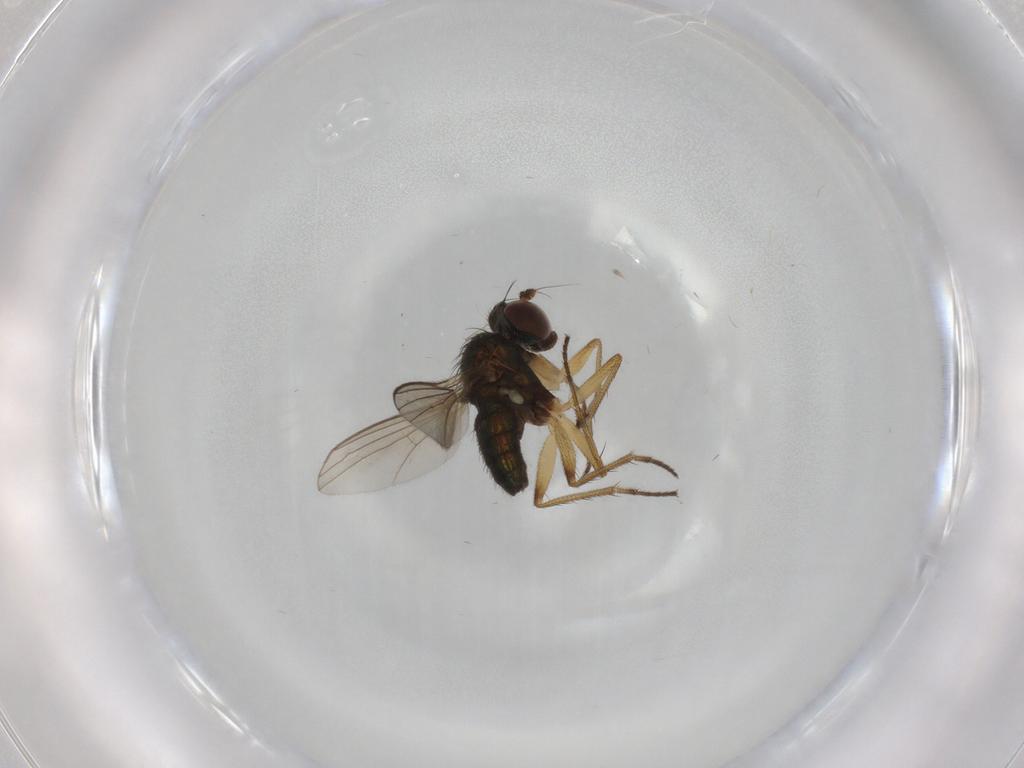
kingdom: Animalia
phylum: Arthropoda
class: Insecta
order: Diptera
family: Dolichopodidae
